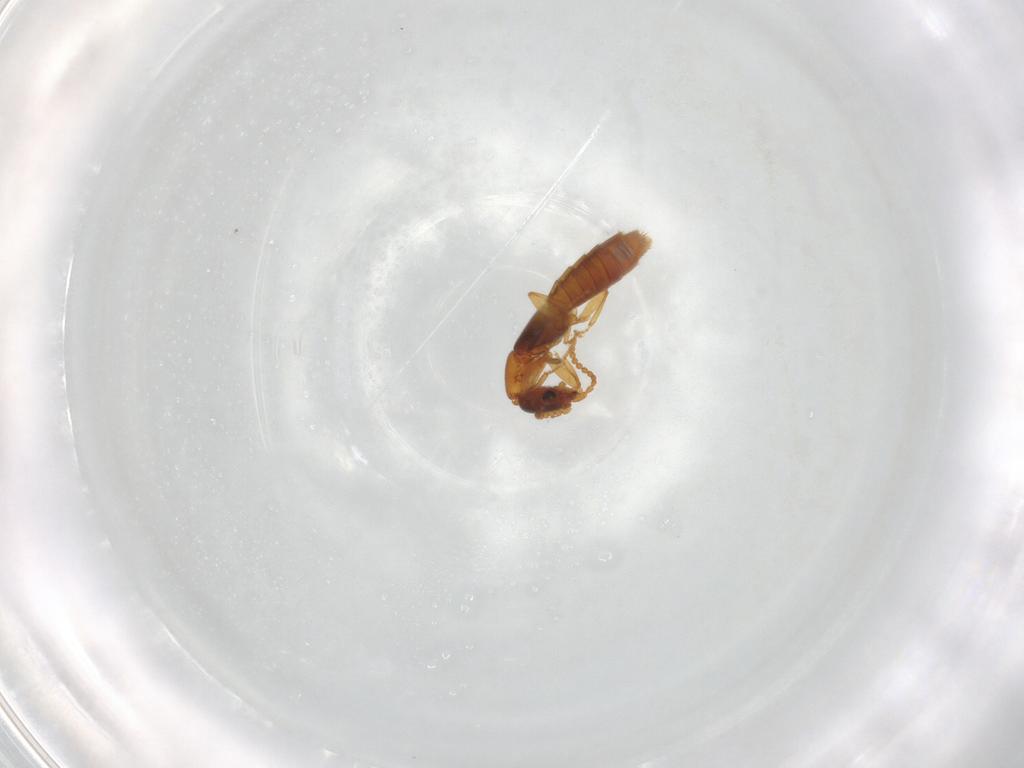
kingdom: Animalia
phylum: Arthropoda
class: Insecta
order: Coleoptera
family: Staphylinidae
